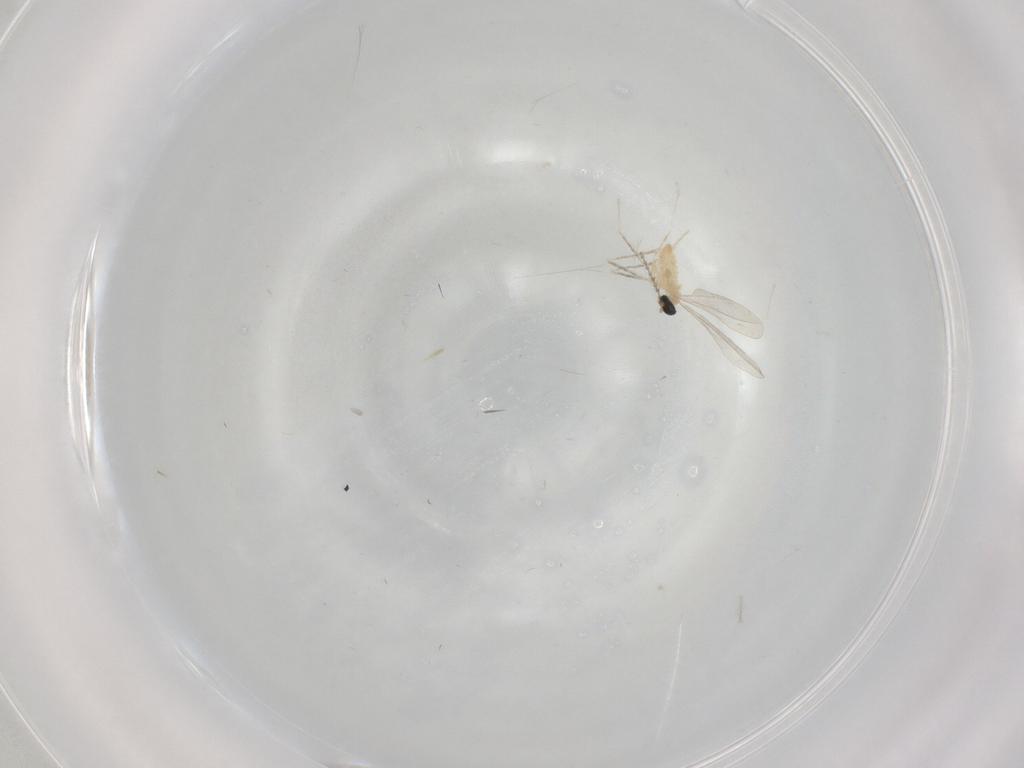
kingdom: Animalia
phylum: Arthropoda
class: Insecta
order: Diptera
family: Cecidomyiidae
